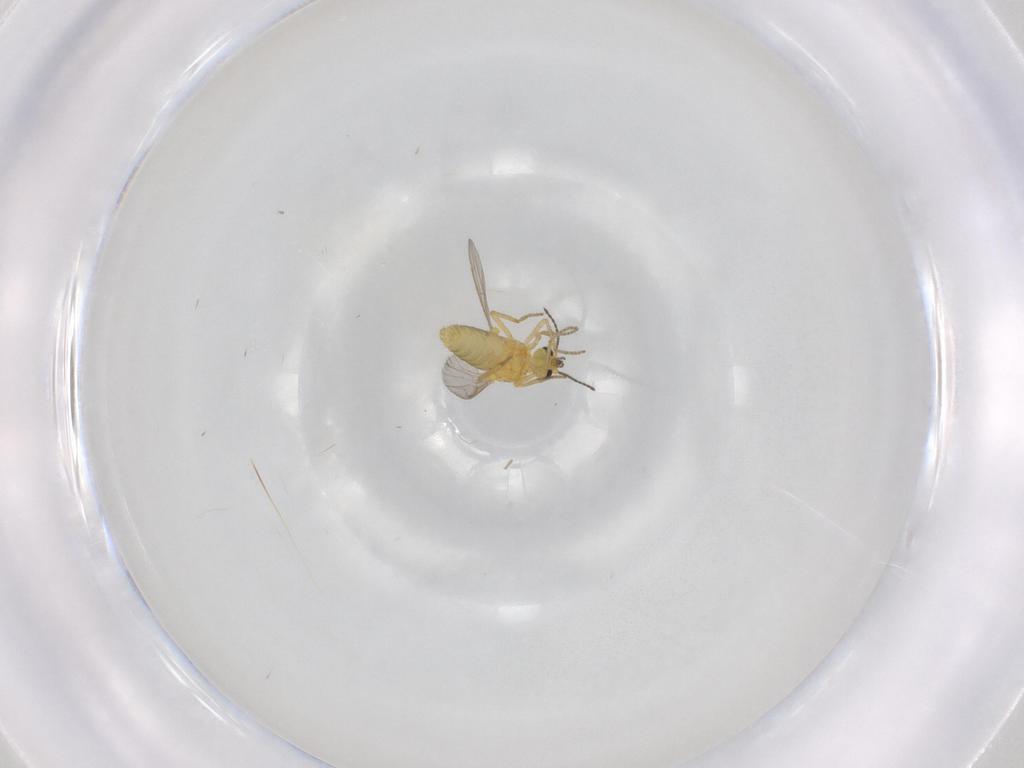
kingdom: Animalia
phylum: Arthropoda
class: Insecta
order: Diptera
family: Ceratopogonidae
